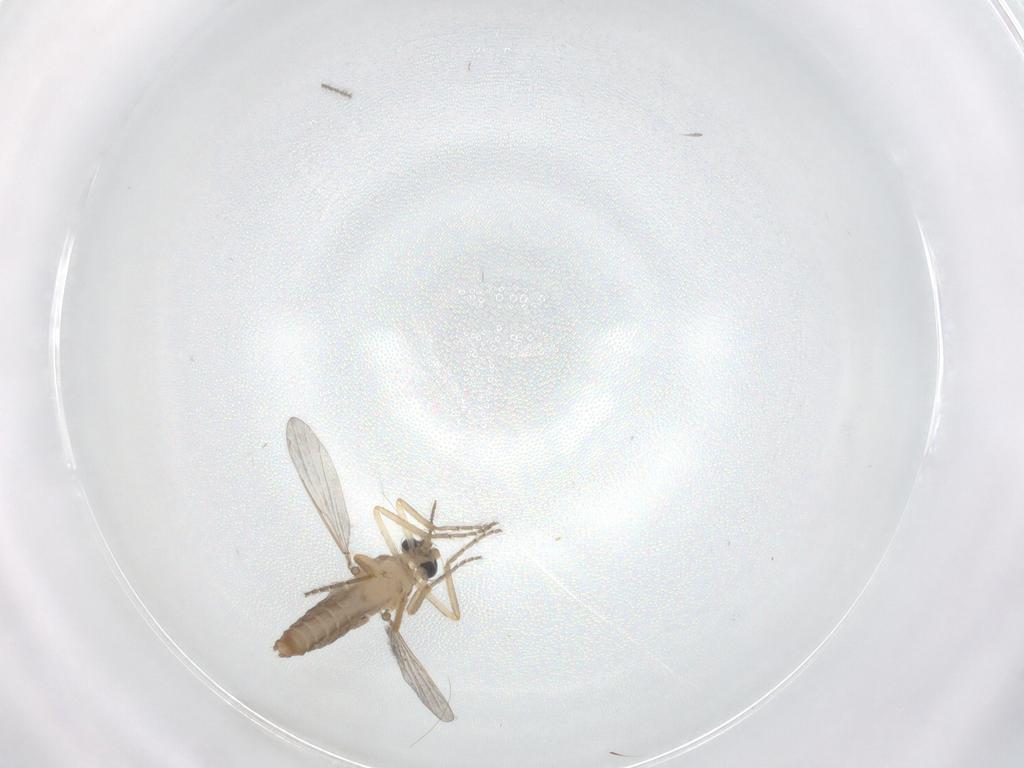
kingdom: Animalia
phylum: Arthropoda
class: Insecta
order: Diptera
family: Ceratopogonidae
